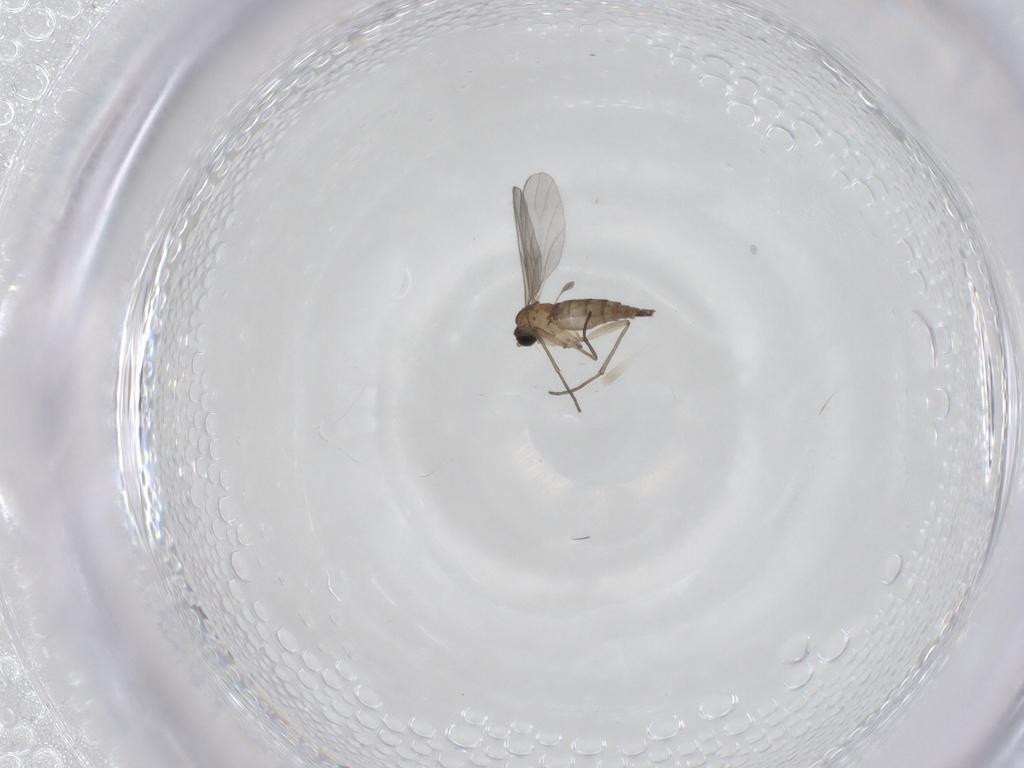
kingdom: Animalia
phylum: Arthropoda
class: Insecta
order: Diptera
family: Sciaridae
